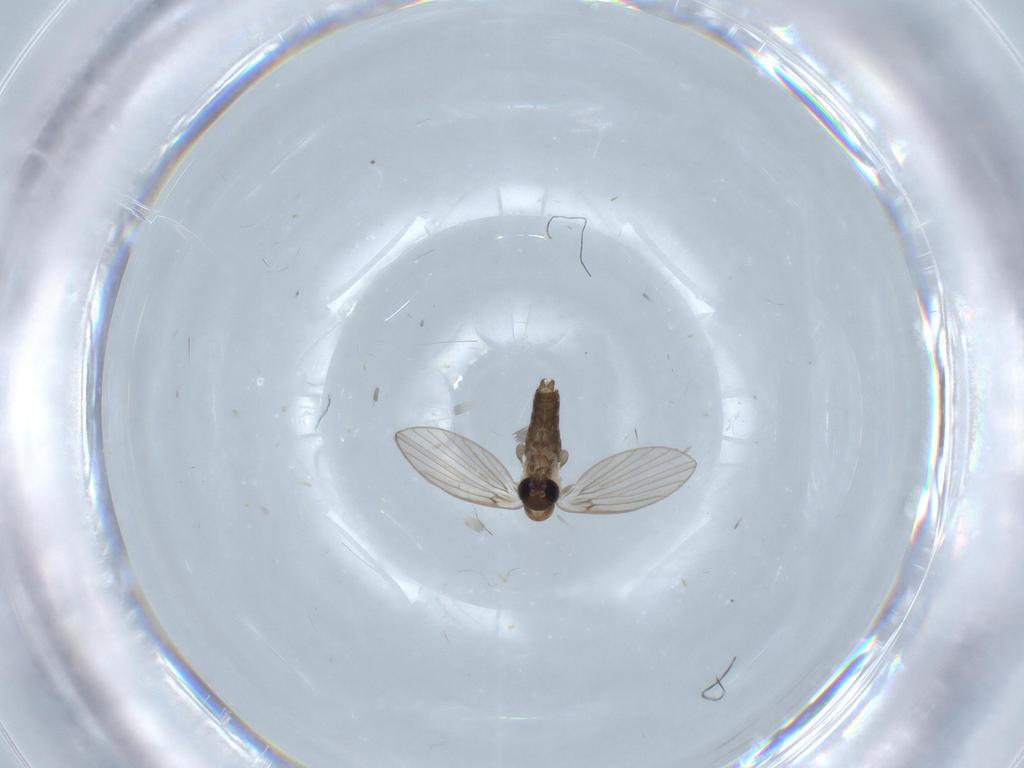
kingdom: Animalia
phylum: Arthropoda
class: Insecta
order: Diptera
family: Psychodidae
